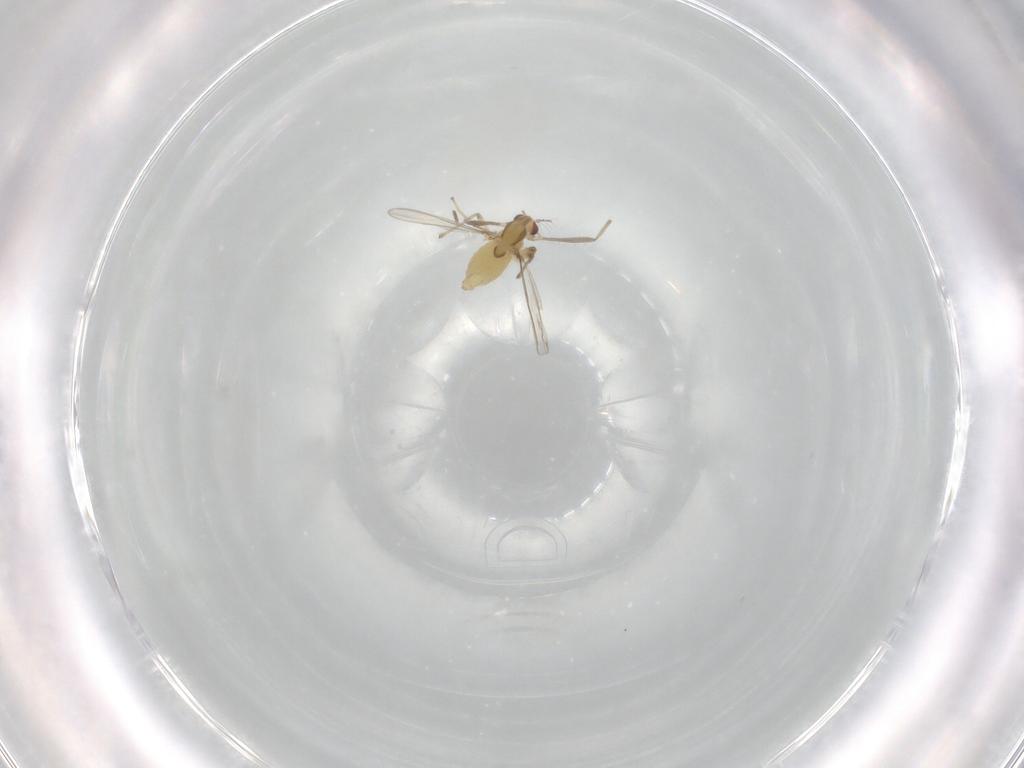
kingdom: Animalia
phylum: Arthropoda
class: Insecta
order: Diptera
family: Chironomidae
